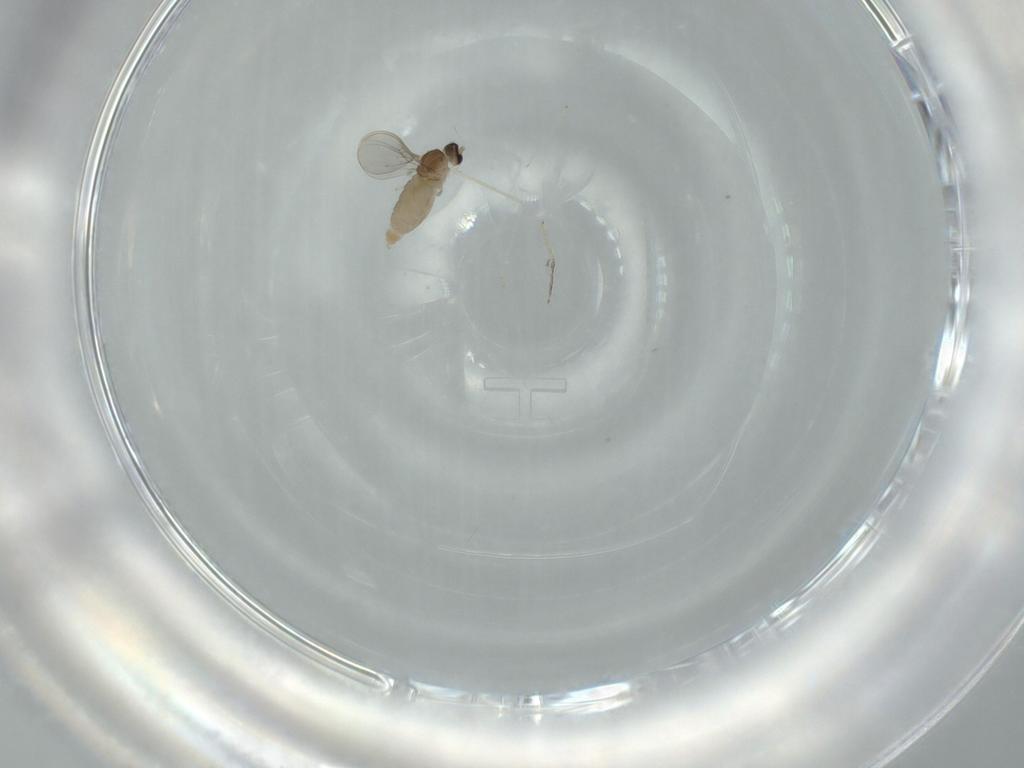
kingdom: Animalia
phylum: Arthropoda
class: Insecta
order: Diptera
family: Cecidomyiidae
